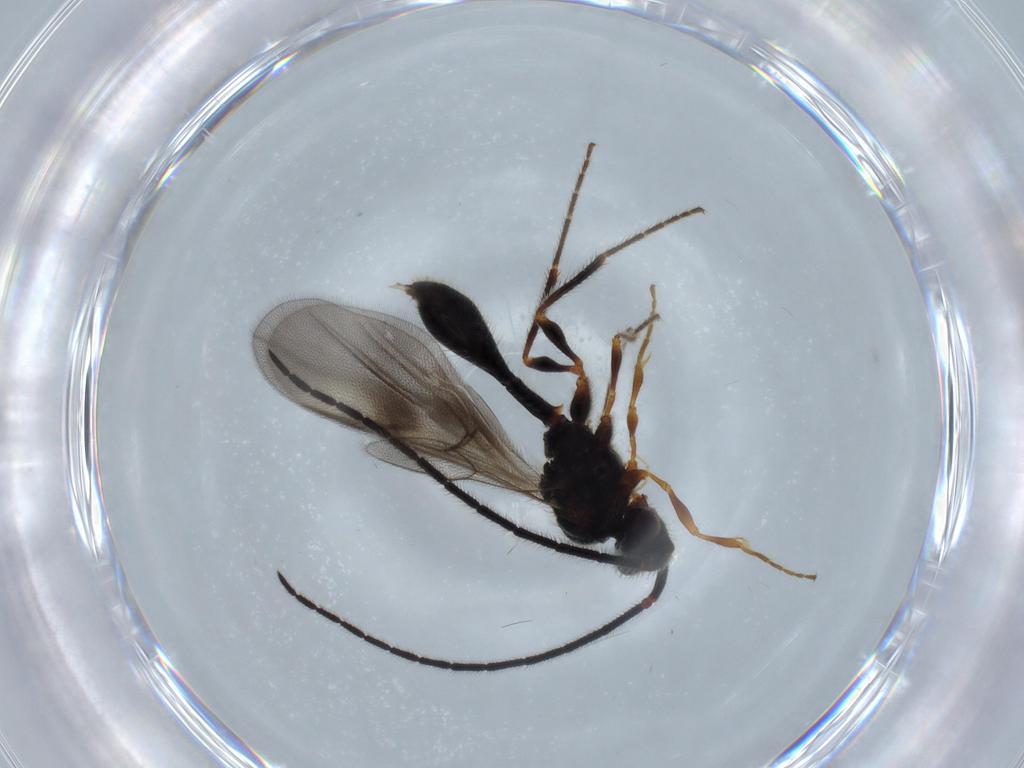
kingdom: Animalia
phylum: Arthropoda
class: Insecta
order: Hymenoptera
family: Diapriidae
